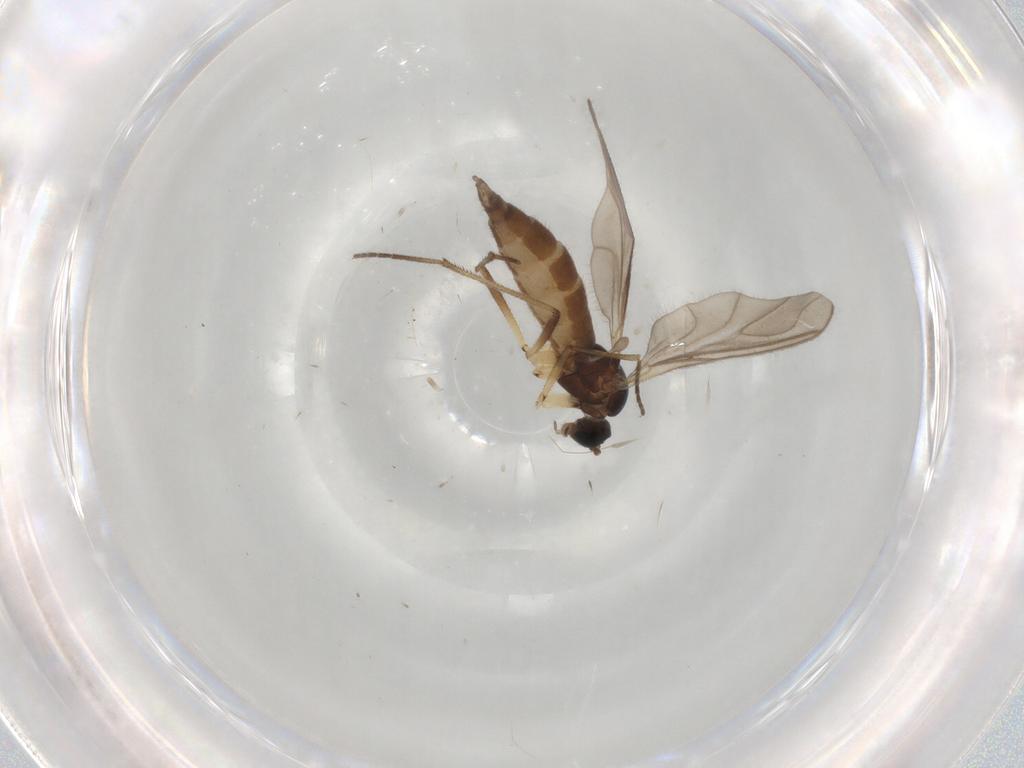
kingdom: Animalia
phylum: Arthropoda
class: Insecta
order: Diptera
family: Sciaridae
